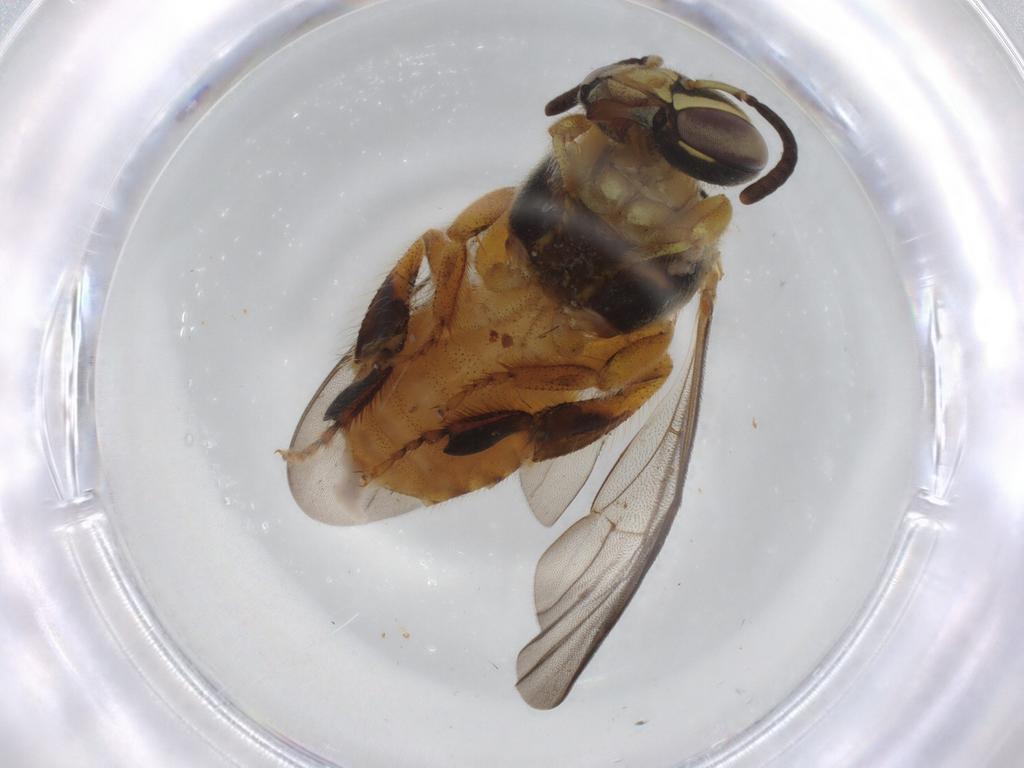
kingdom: Animalia
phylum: Arthropoda
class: Insecta
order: Hymenoptera
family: Apidae
